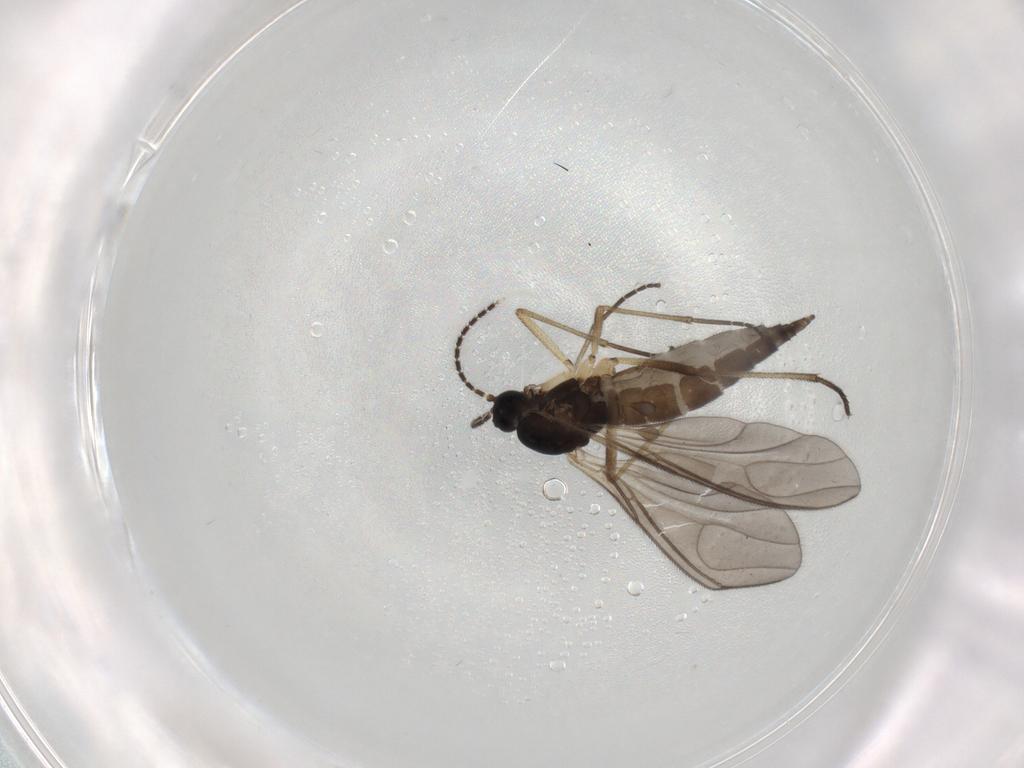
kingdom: Animalia
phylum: Arthropoda
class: Insecta
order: Diptera
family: Sciaridae
